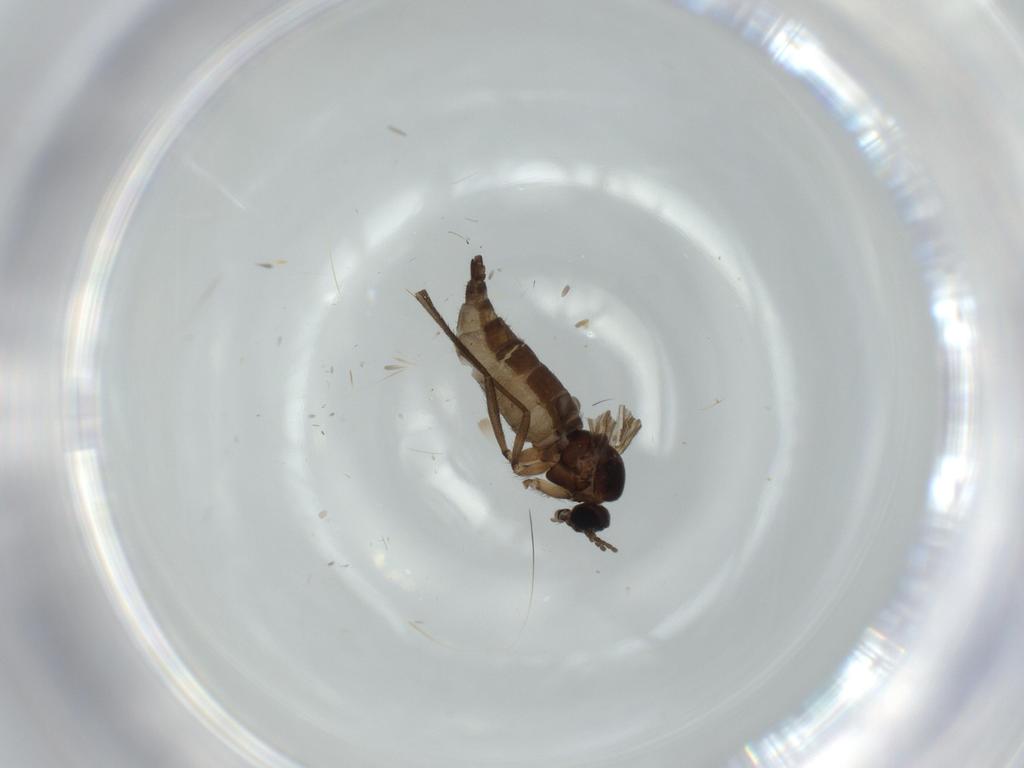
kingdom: Animalia
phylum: Arthropoda
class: Insecta
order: Diptera
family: Sciaridae
